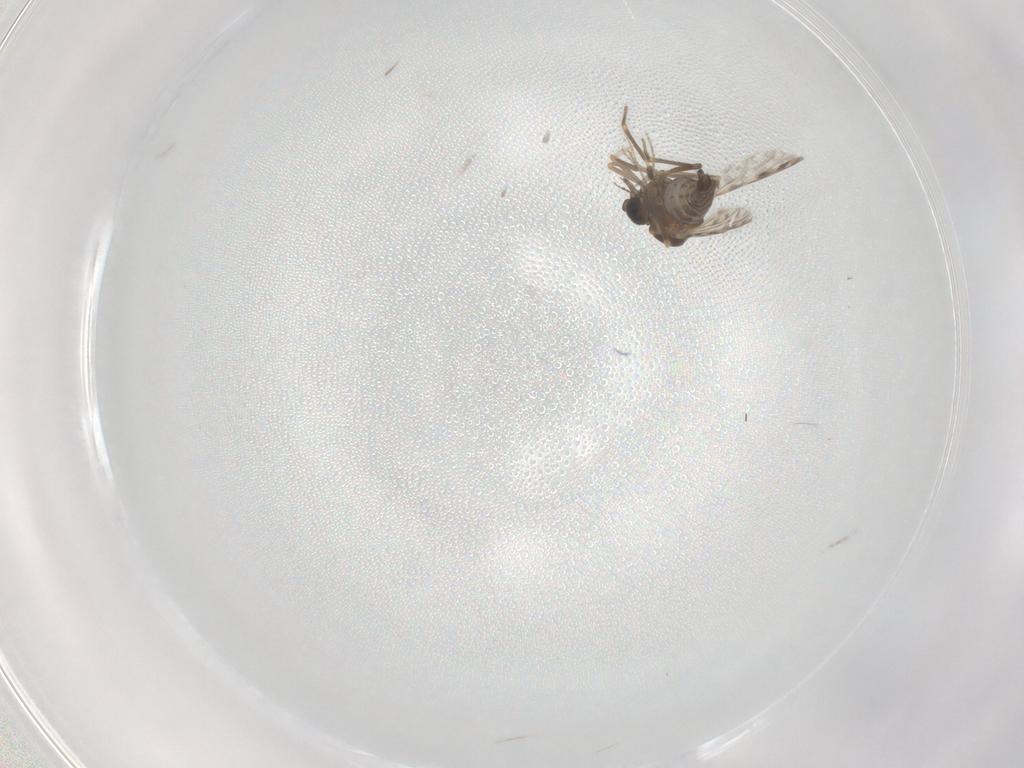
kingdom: Animalia
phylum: Arthropoda
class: Insecta
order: Diptera
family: Ceratopogonidae
